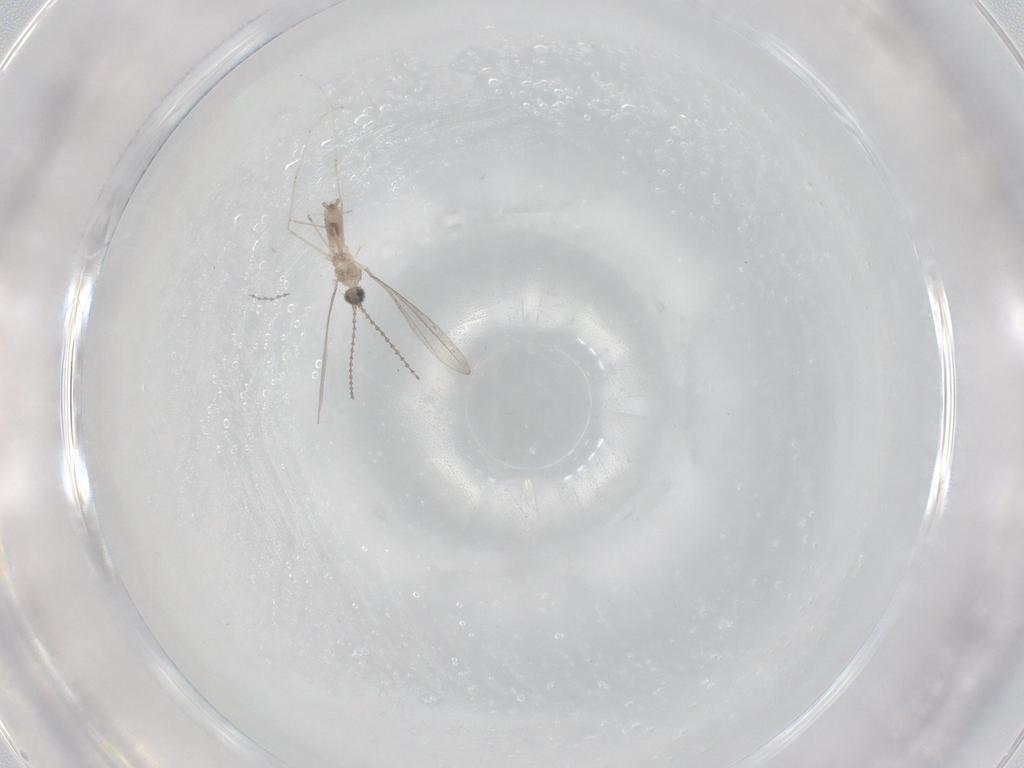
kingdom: Animalia
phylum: Arthropoda
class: Insecta
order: Diptera
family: Cecidomyiidae
